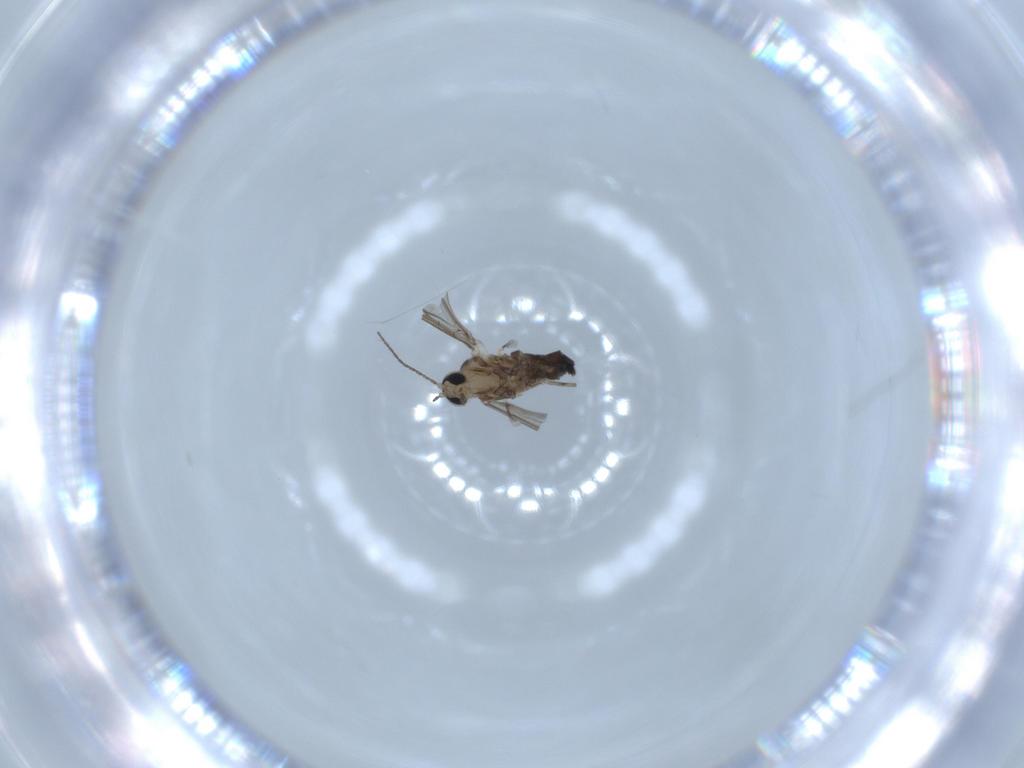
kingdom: Animalia
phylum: Arthropoda
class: Insecta
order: Diptera
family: Cecidomyiidae
